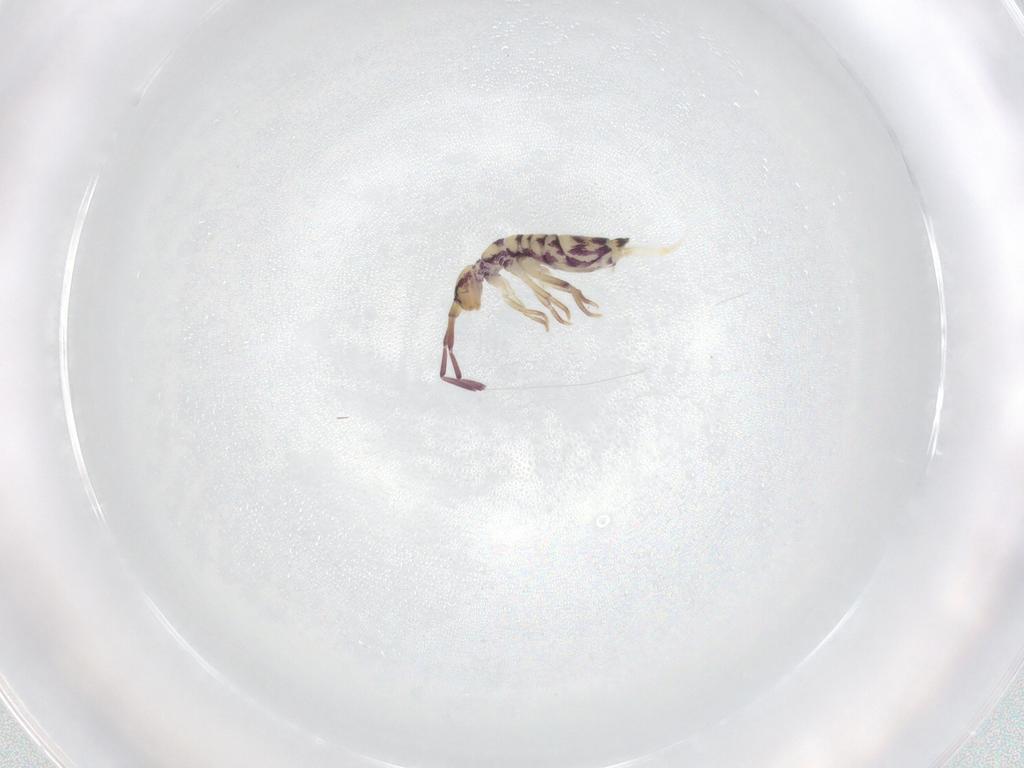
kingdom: Animalia
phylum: Arthropoda
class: Collembola
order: Entomobryomorpha
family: Entomobryidae
